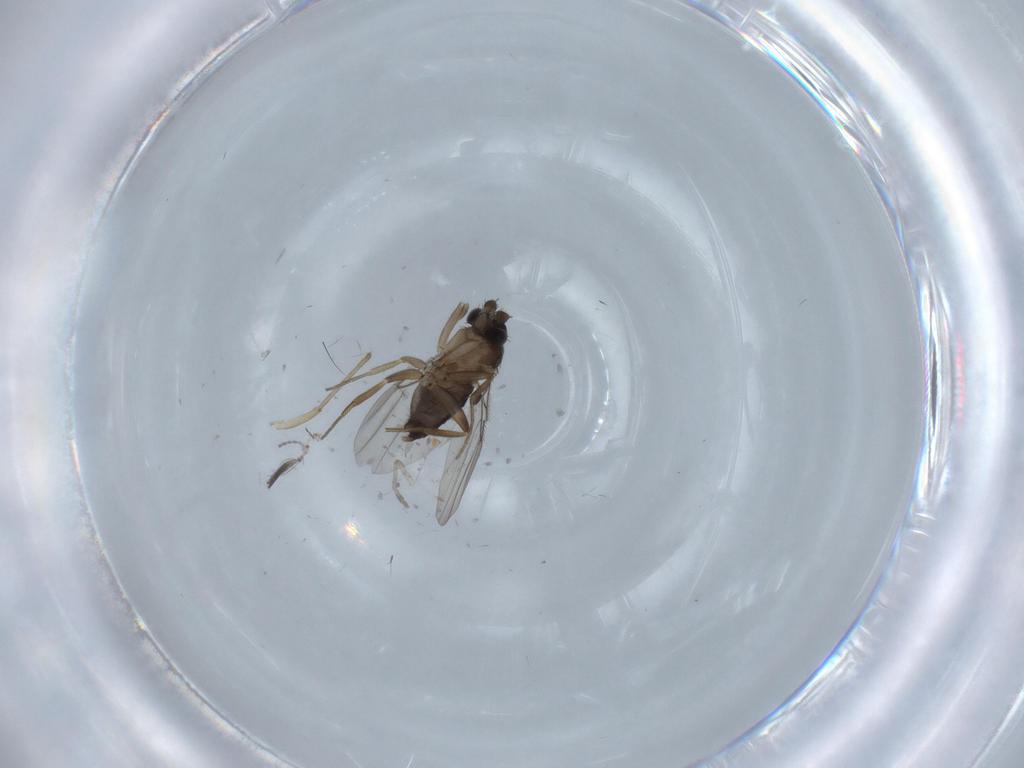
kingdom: Animalia
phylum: Arthropoda
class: Insecta
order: Diptera
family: Phoridae
